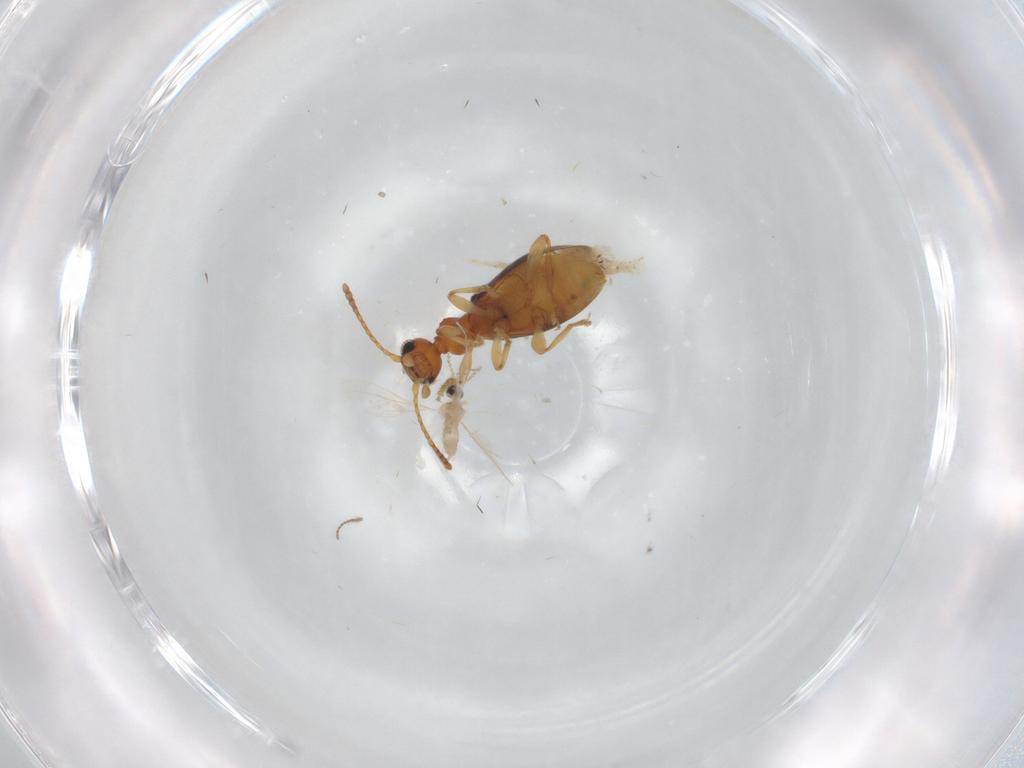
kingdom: Animalia
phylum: Arthropoda
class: Insecta
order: Coleoptera
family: Anthicidae
